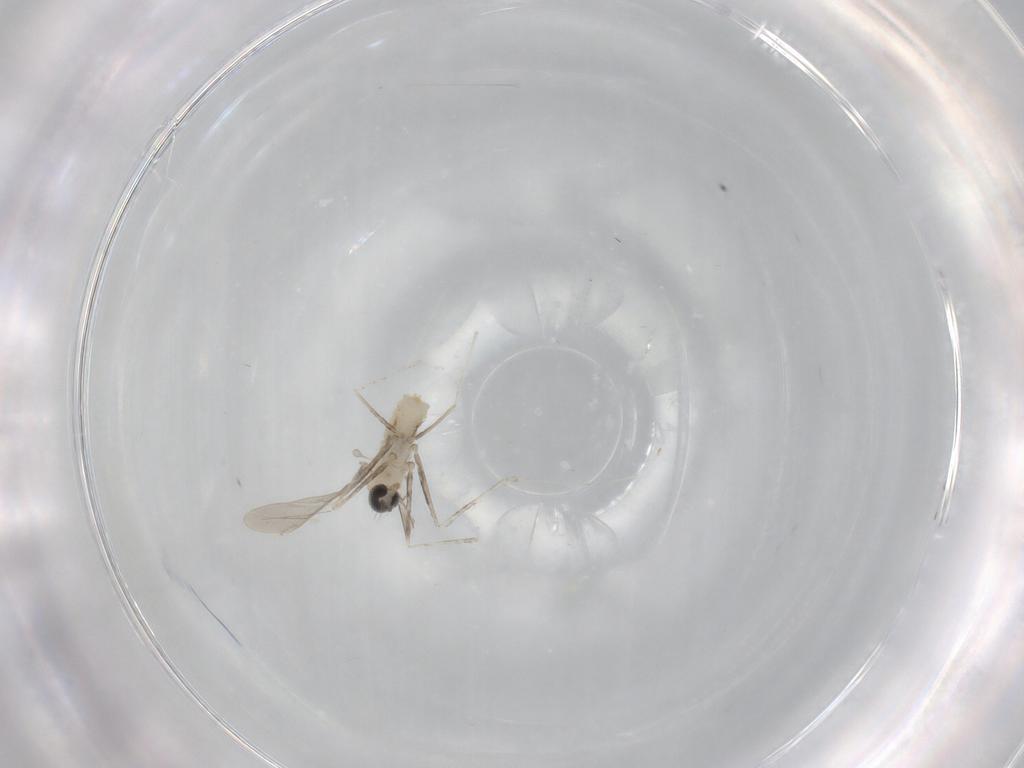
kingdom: Animalia
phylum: Arthropoda
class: Insecta
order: Diptera
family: Cecidomyiidae
